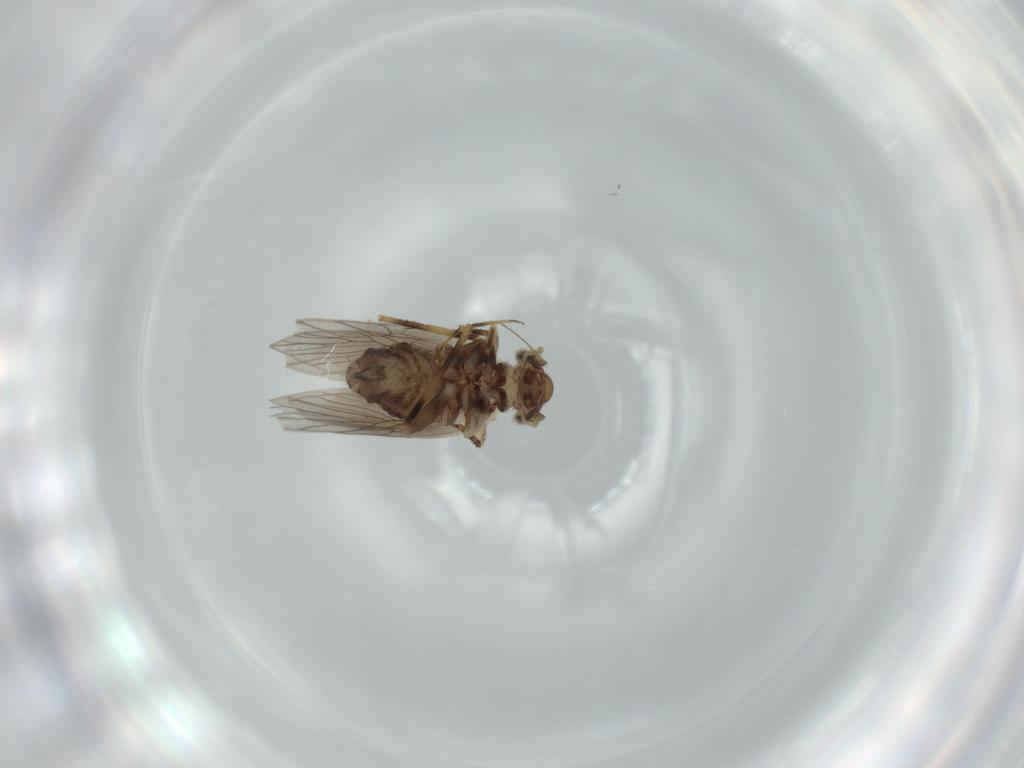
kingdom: Animalia
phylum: Arthropoda
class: Insecta
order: Psocodea
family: Lepidopsocidae
